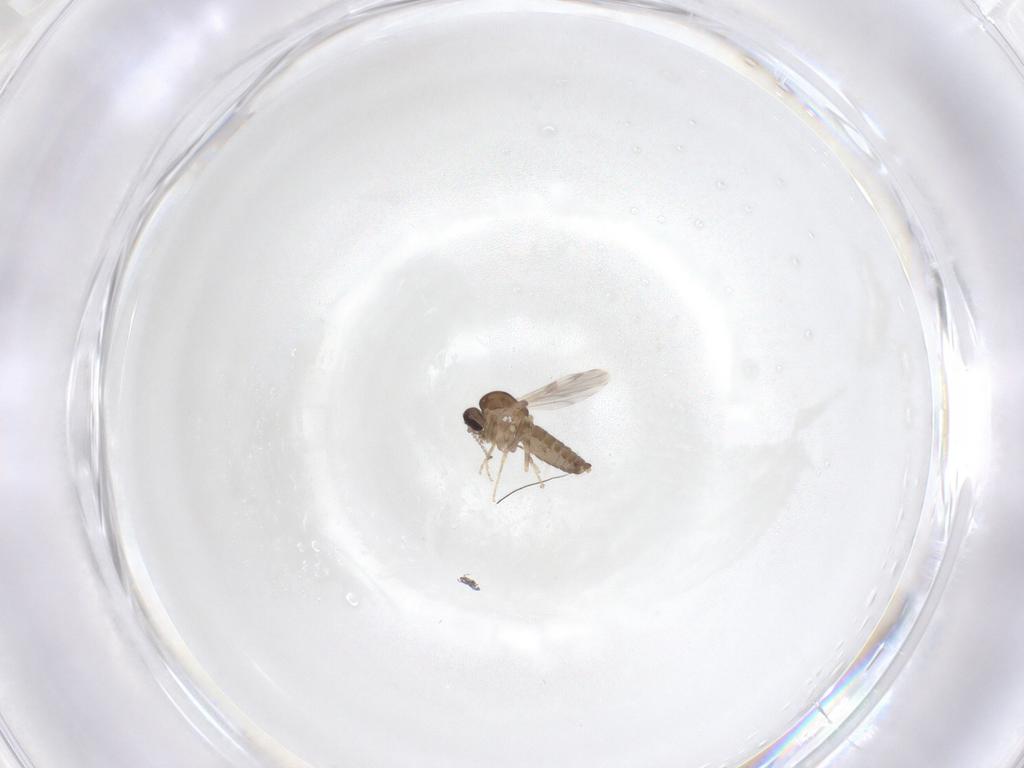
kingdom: Animalia
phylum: Arthropoda
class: Insecta
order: Diptera
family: Ceratopogonidae
